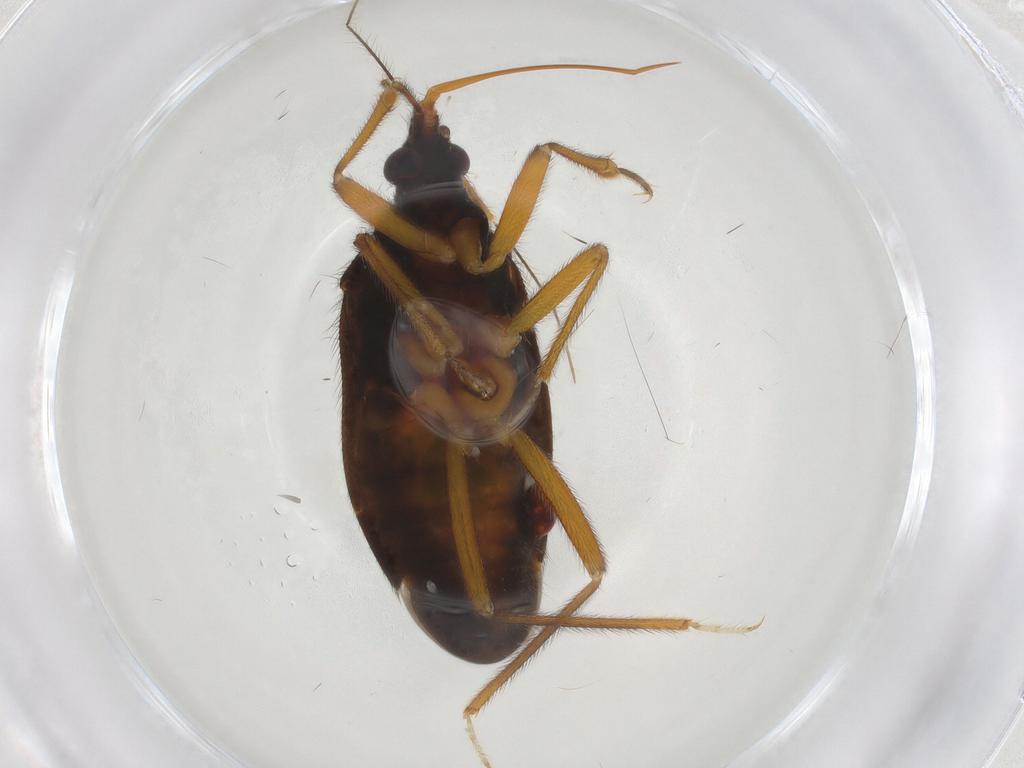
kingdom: Animalia
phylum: Arthropoda
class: Insecta
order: Hemiptera
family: Anthocoridae
